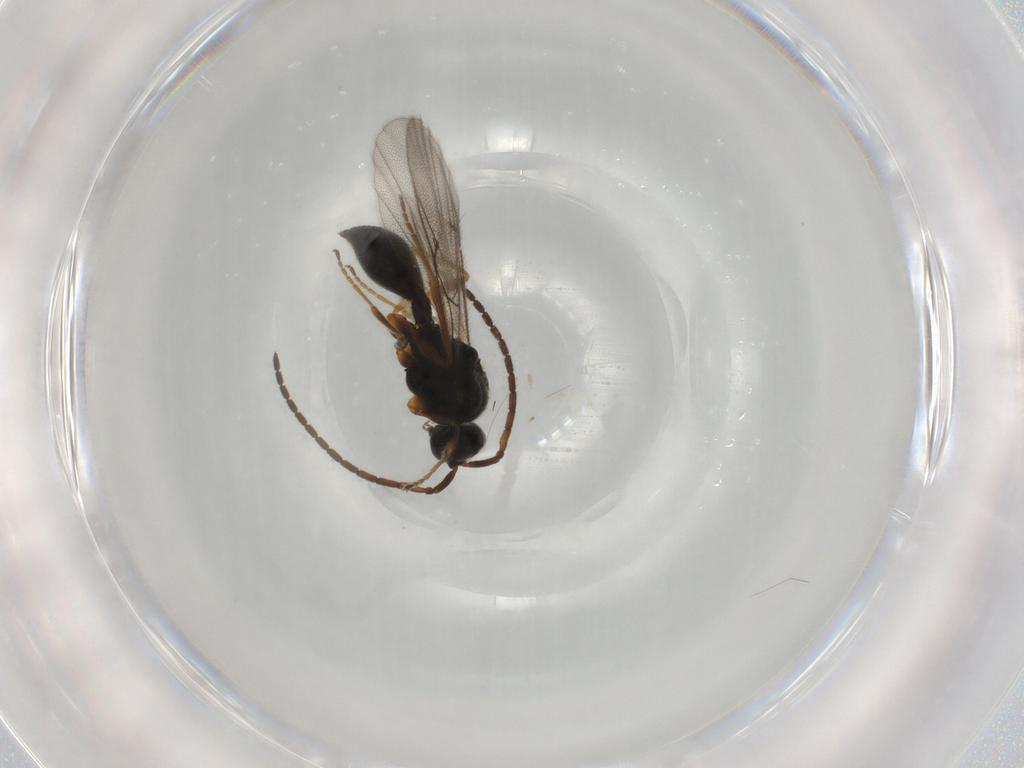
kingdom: Animalia
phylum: Arthropoda
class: Insecta
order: Hymenoptera
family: Diapriidae
